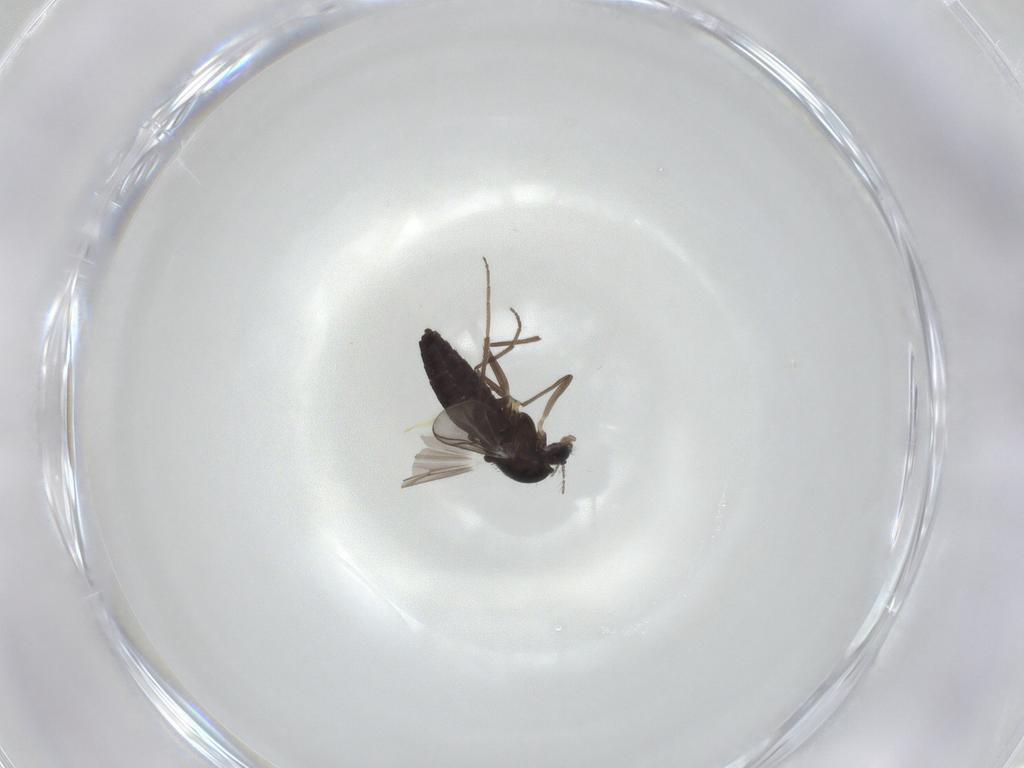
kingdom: Animalia
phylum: Arthropoda
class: Insecta
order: Diptera
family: Chironomidae
